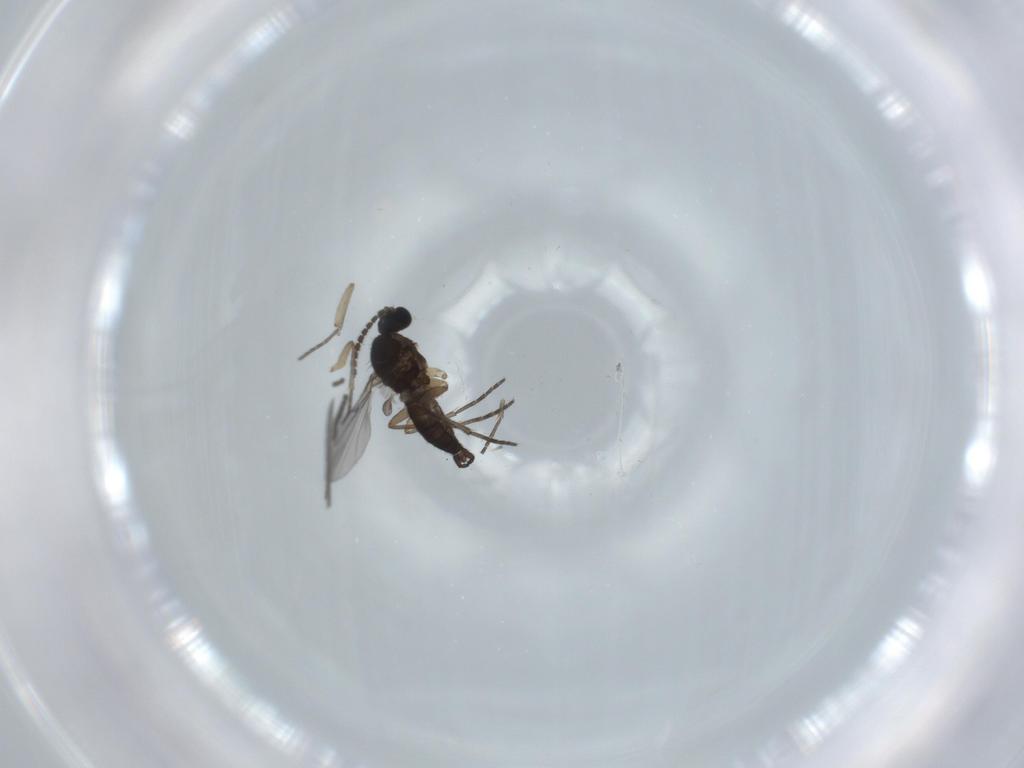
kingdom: Animalia
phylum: Arthropoda
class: Insecta
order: Diptera
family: Sciaridae
